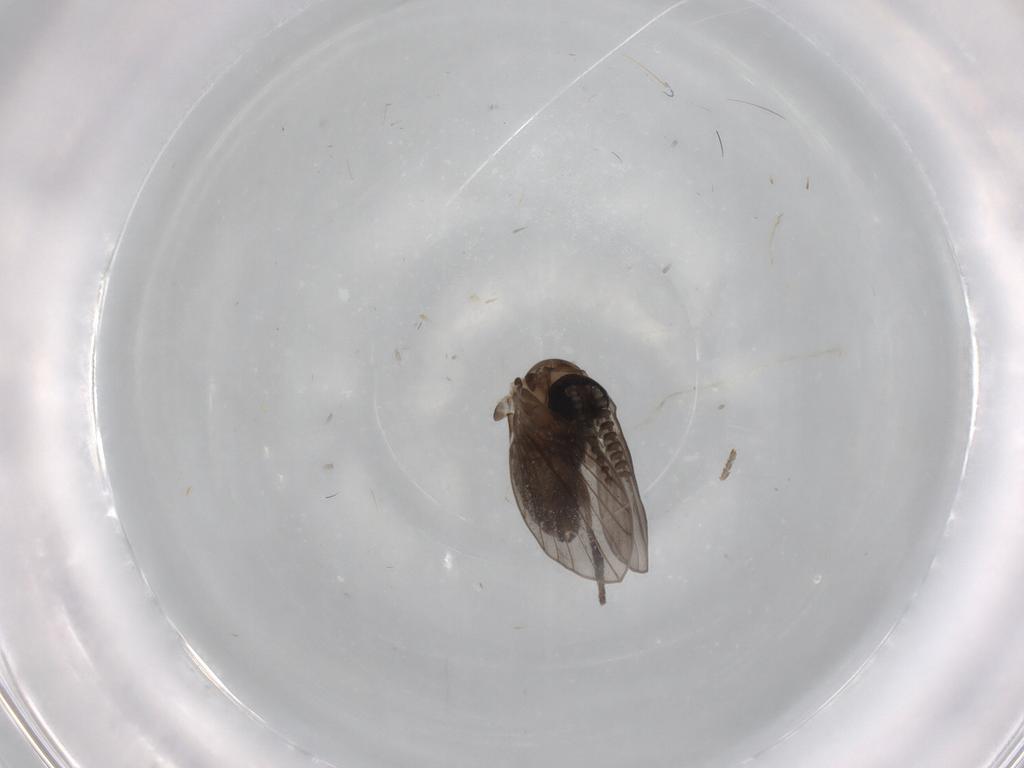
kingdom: Animalia
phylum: Arthropoda
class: Insecta
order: Diptera
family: Psychodidae
